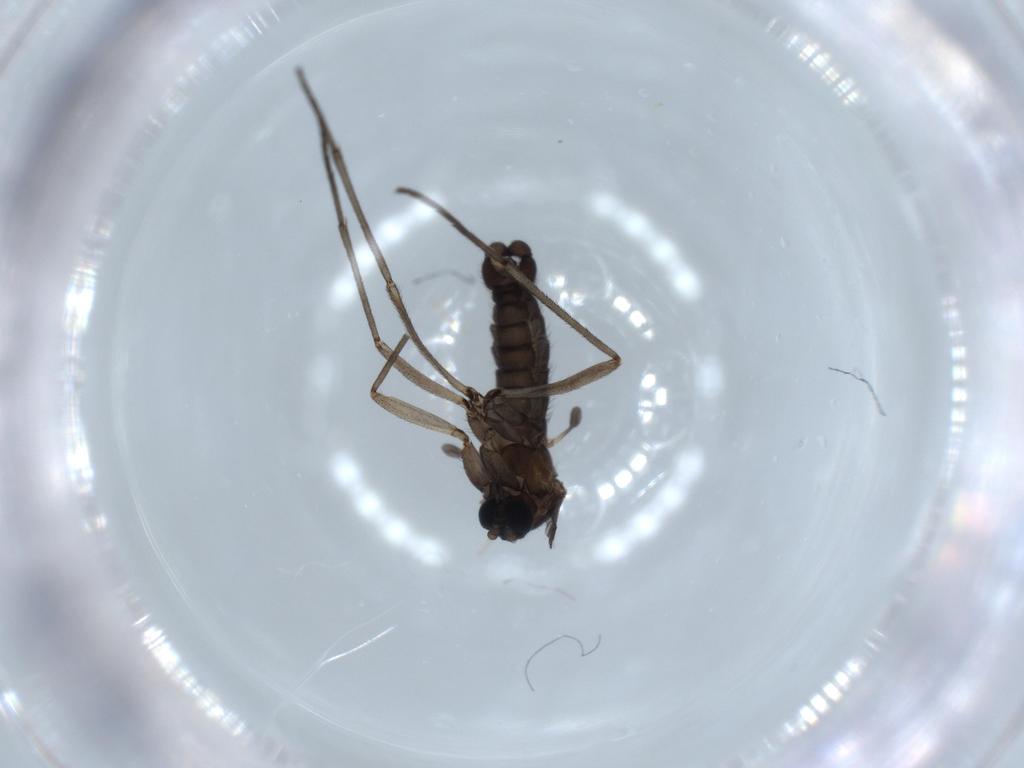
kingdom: Animalia
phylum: Arthropoda
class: Insecta
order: Diptera
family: Sciaridae
